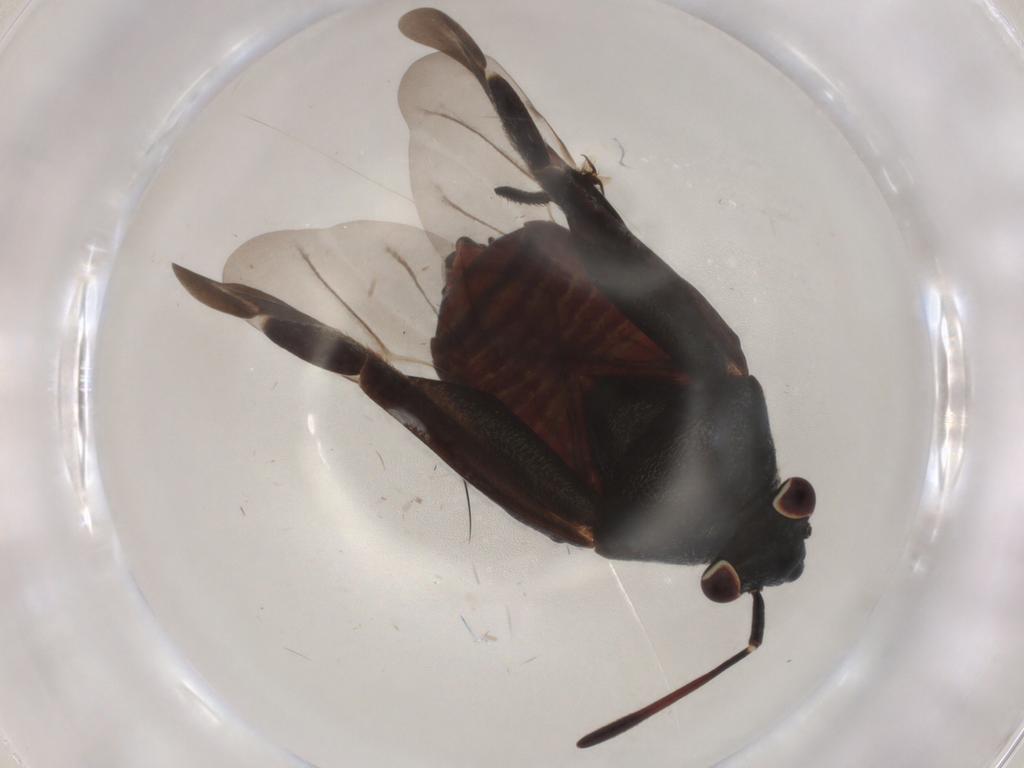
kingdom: Animalia
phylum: Arthropoda
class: Insecta
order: Hemiptera
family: Miridae
